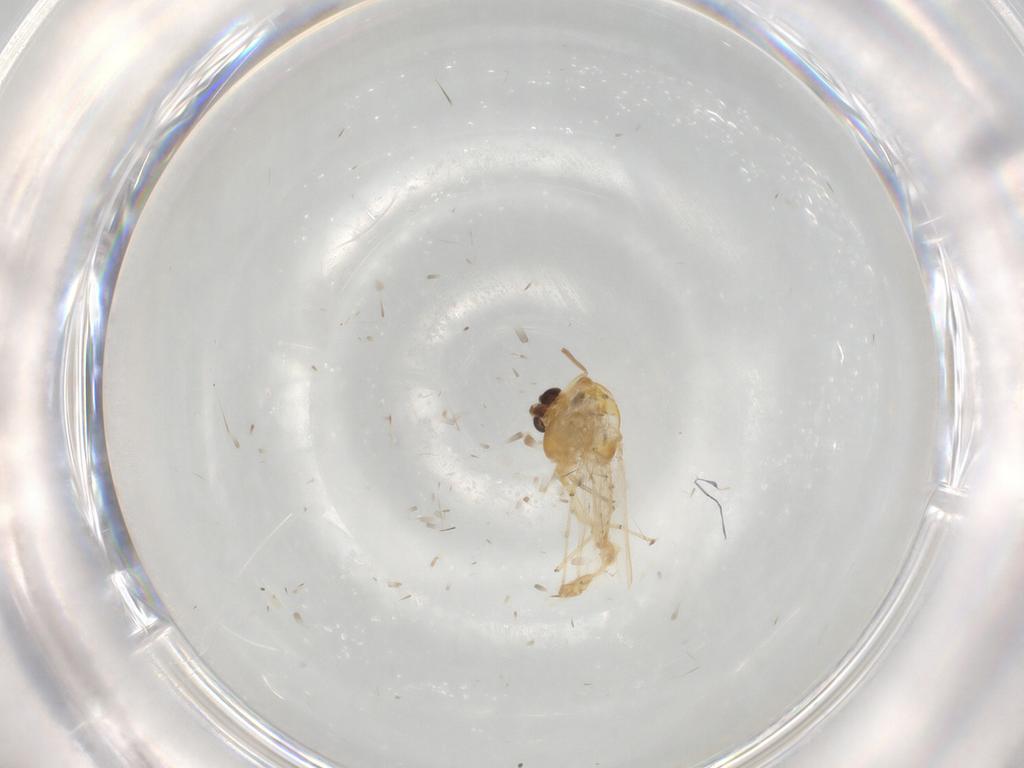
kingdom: Animalia
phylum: Arthropoda
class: Insecta
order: Diptera
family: Chironomidae
